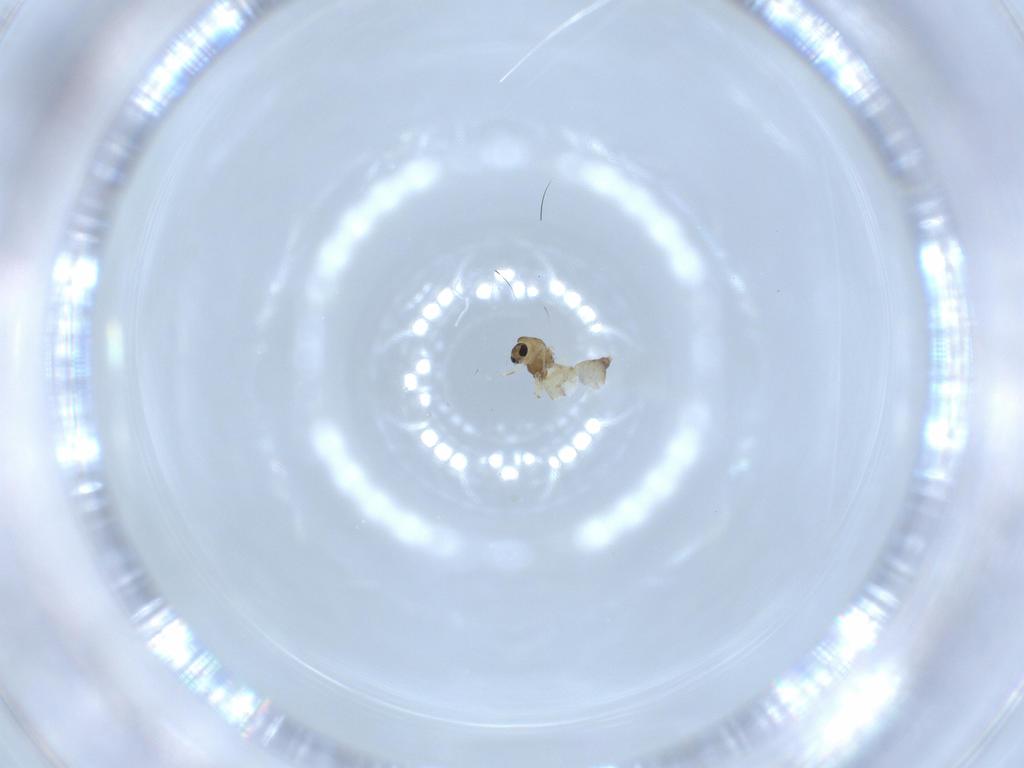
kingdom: Animalia
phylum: Arthropoda
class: Insecta
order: Diptera
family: Chironomidae
